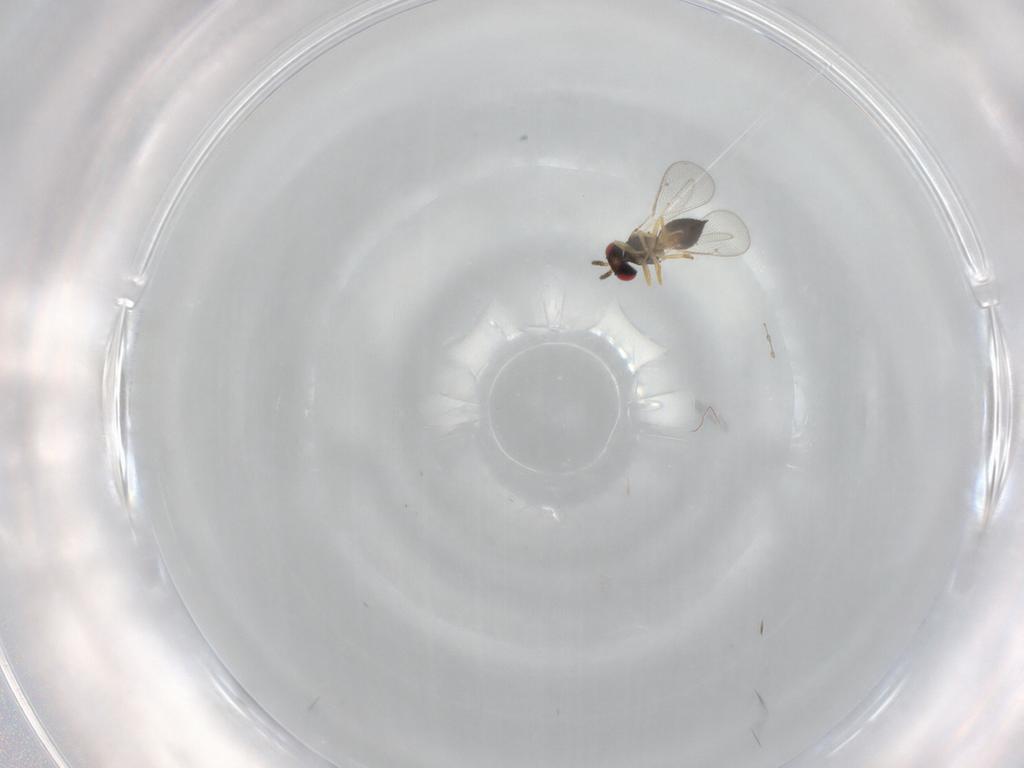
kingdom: Animalia
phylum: Arthropoda
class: Insecta
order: Hymenoptera
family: Eulophidae
